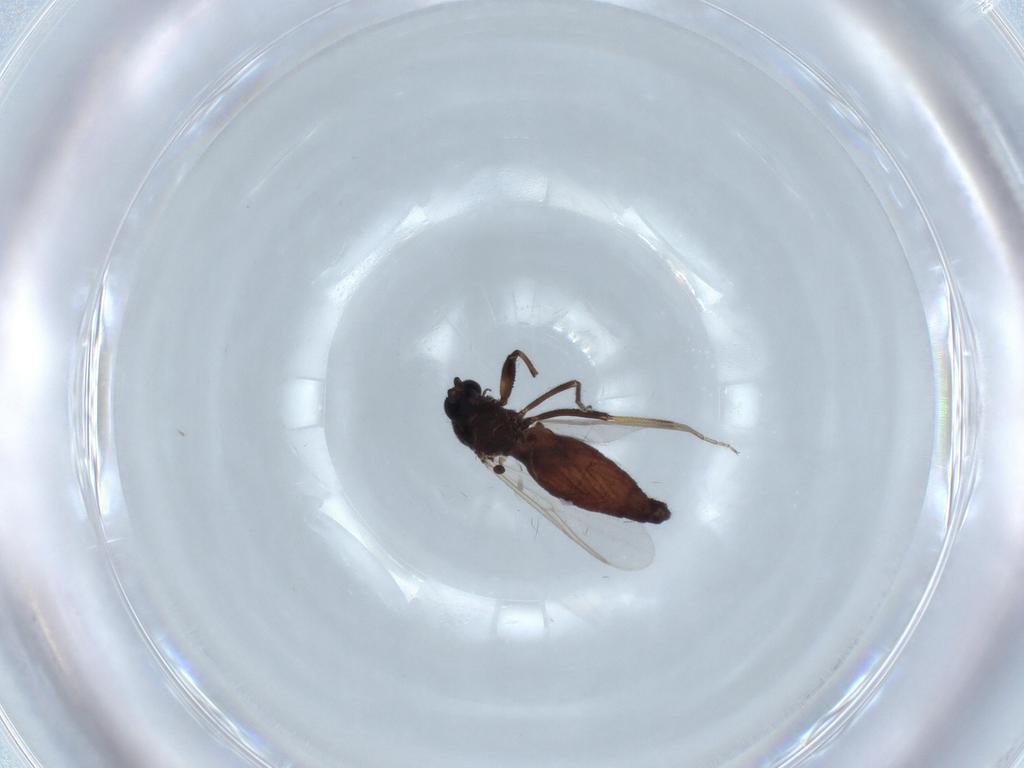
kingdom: Animalia
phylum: Arthropoda
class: Insecta
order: Diptera
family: Ceratopogonidae
